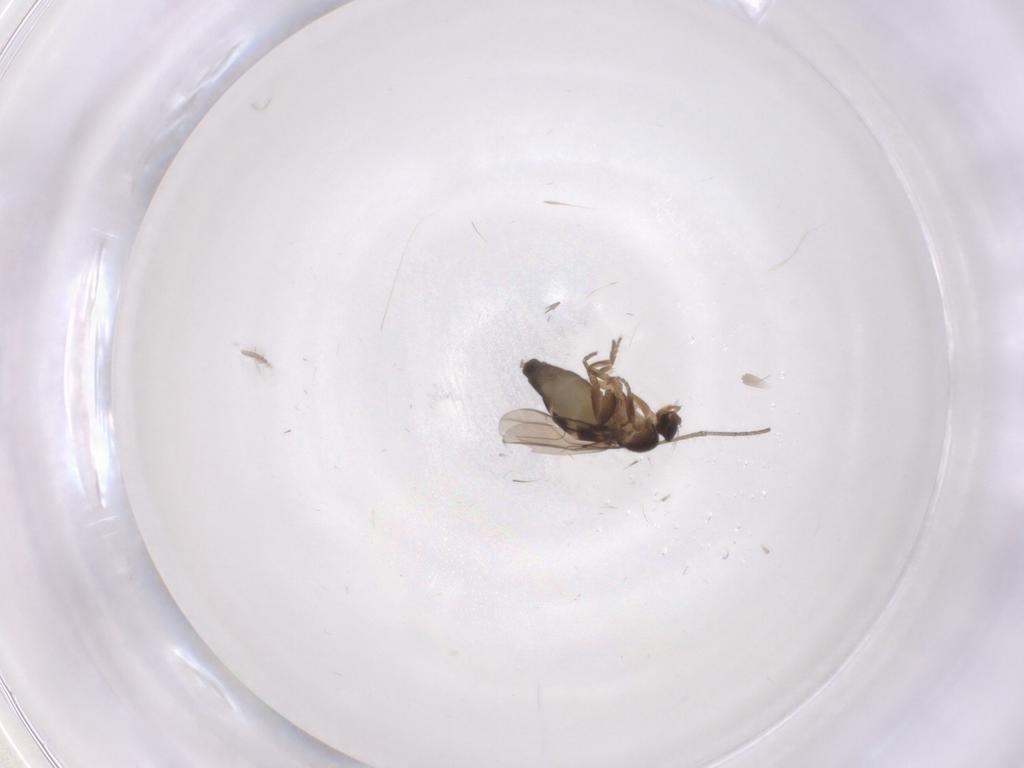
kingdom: Animalia
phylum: Arthropoda
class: Insecta
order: Diptera
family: Phoridae
